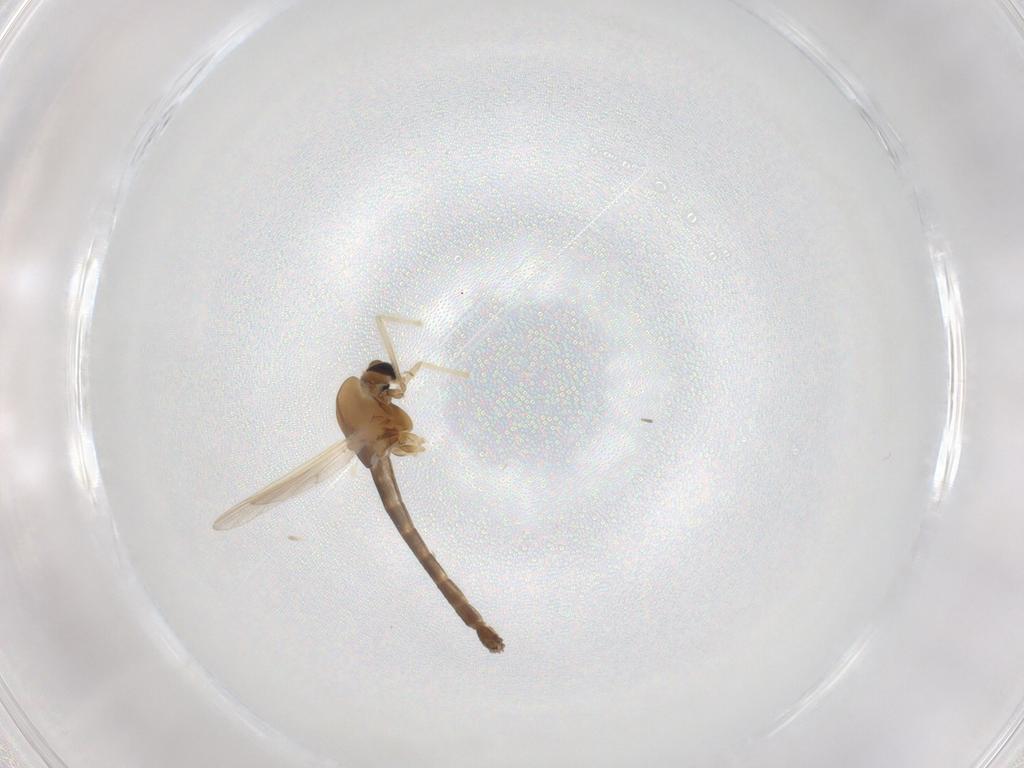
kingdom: Animalia
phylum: Arthropoda
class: Insecta
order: Diptera
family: Chironomidae
